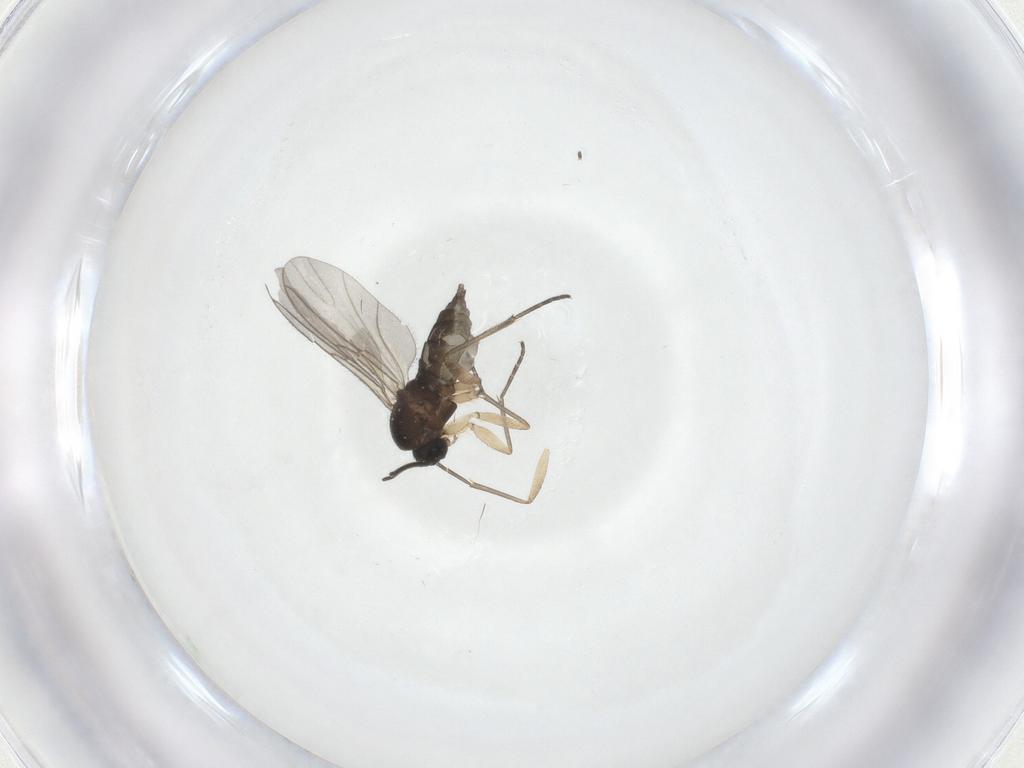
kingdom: Animalia
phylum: Arthropoda
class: Insecta
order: Diptera
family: Sciaridae
